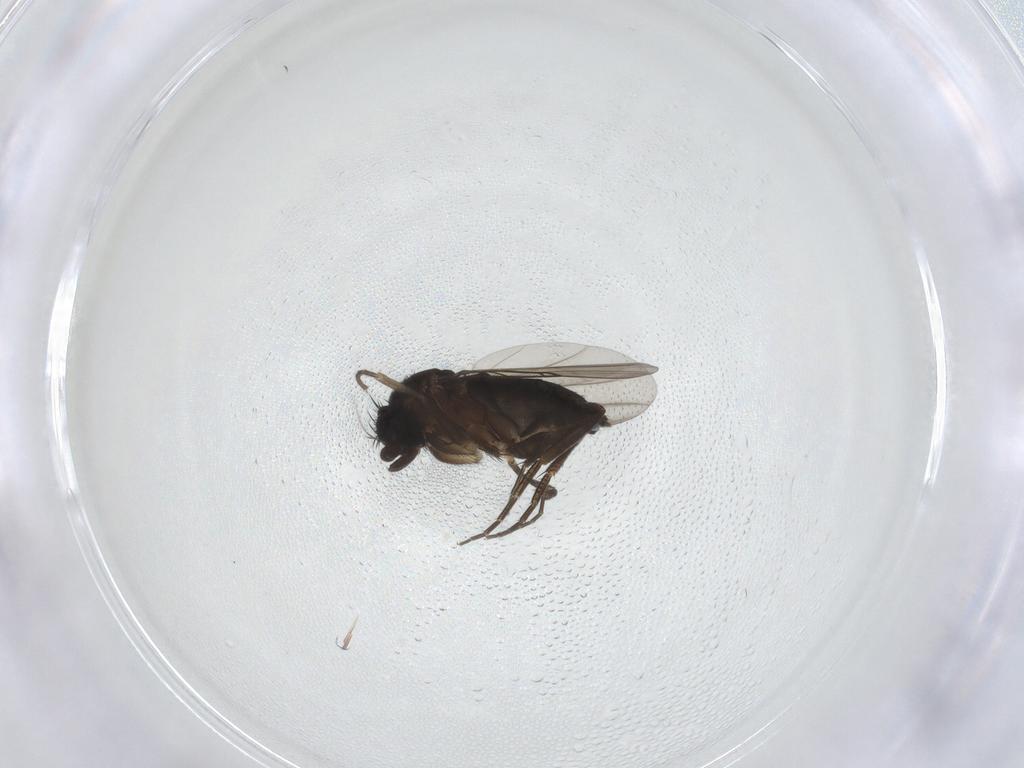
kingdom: Animalia
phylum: Arthropoda
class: Insecta
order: Diptera
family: Phoridae
